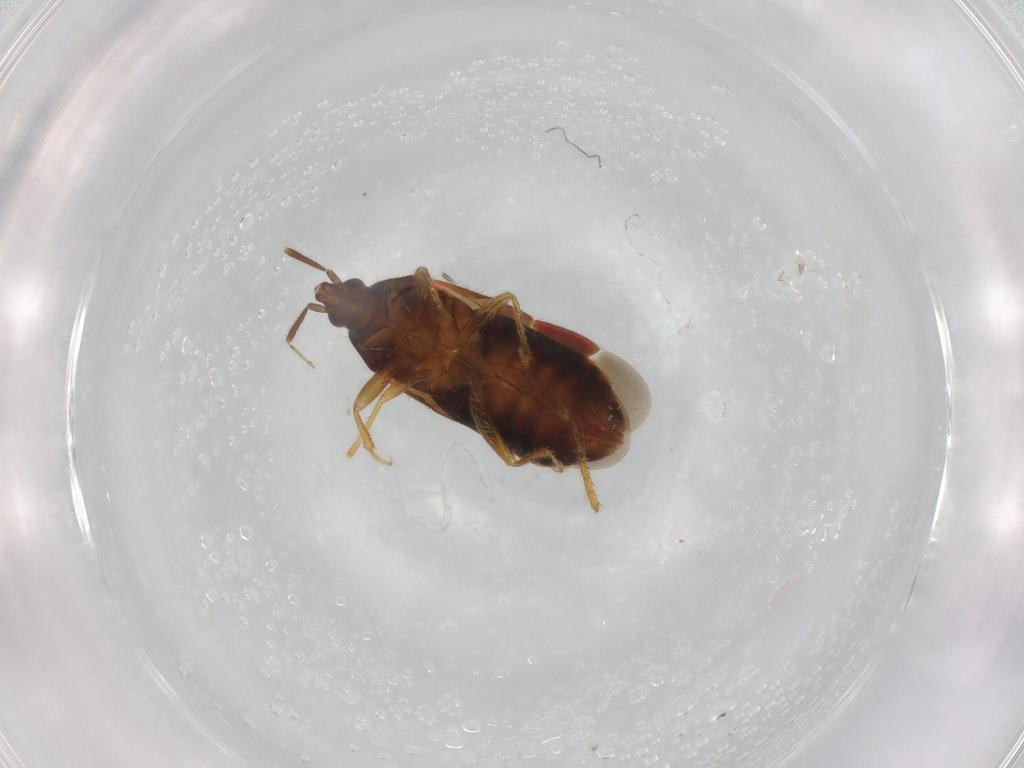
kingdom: Animalia
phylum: Arthropoda
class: Insecta
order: Hemiptera
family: Lasiochilidae
